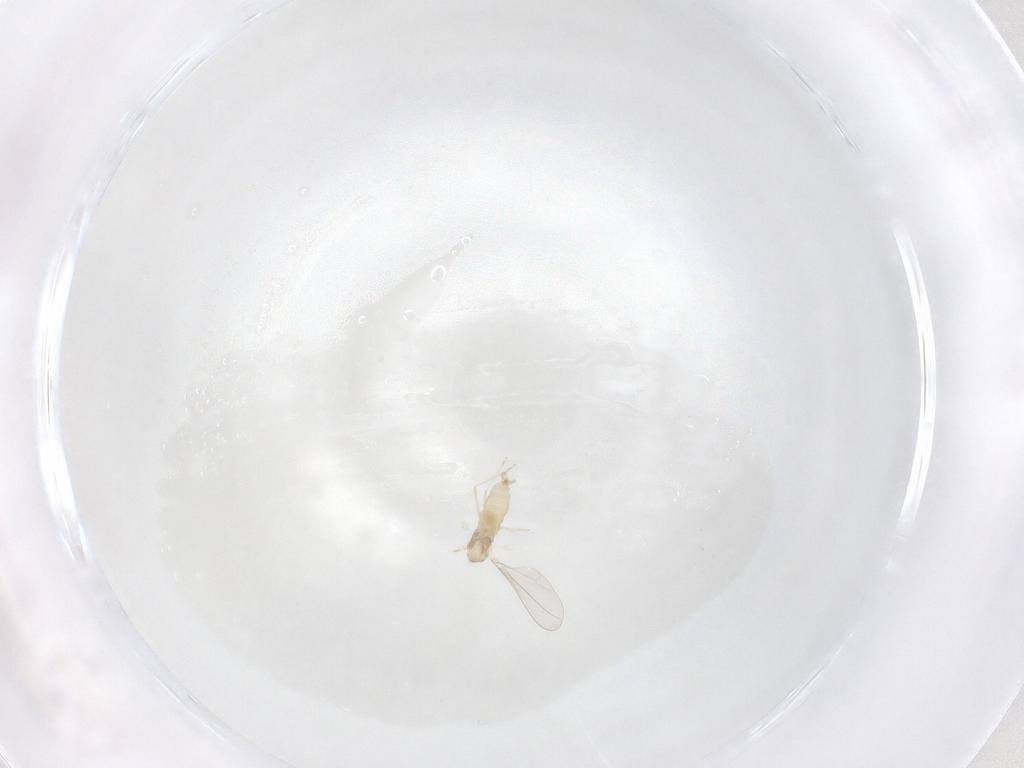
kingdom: Animalia
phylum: Arthropoda
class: Insecta
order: Diptera
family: Cecidomyiidae
